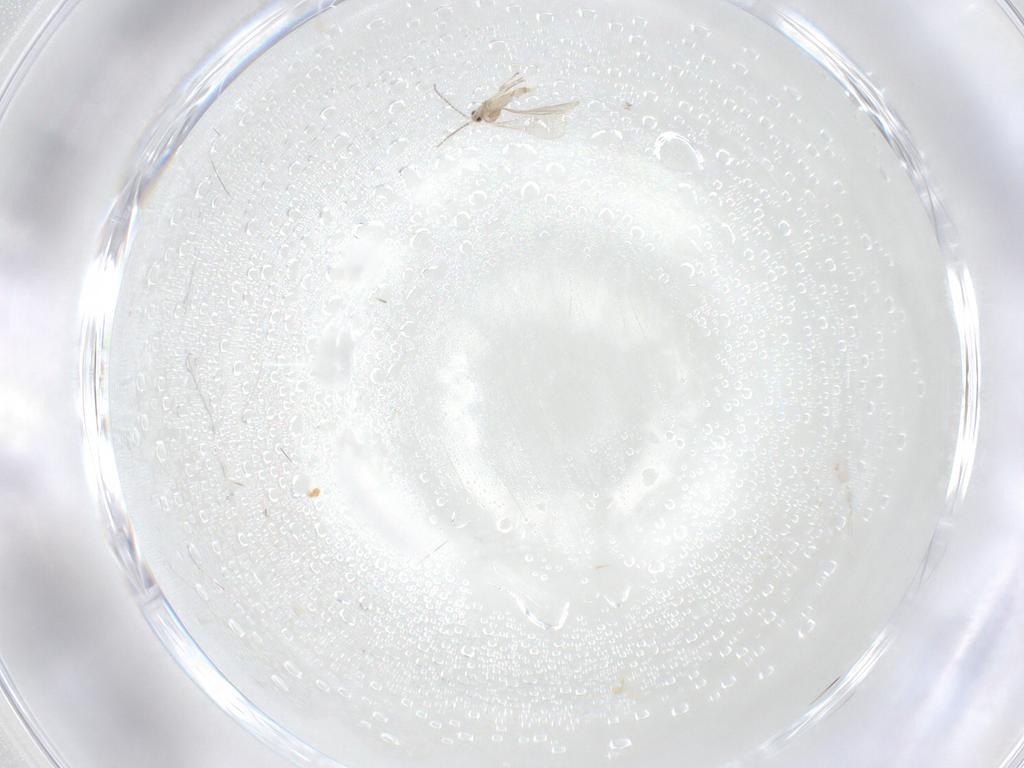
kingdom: Animalia
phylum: Arthropoda
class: Insecta
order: Diptera
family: Cecidomyiidae
